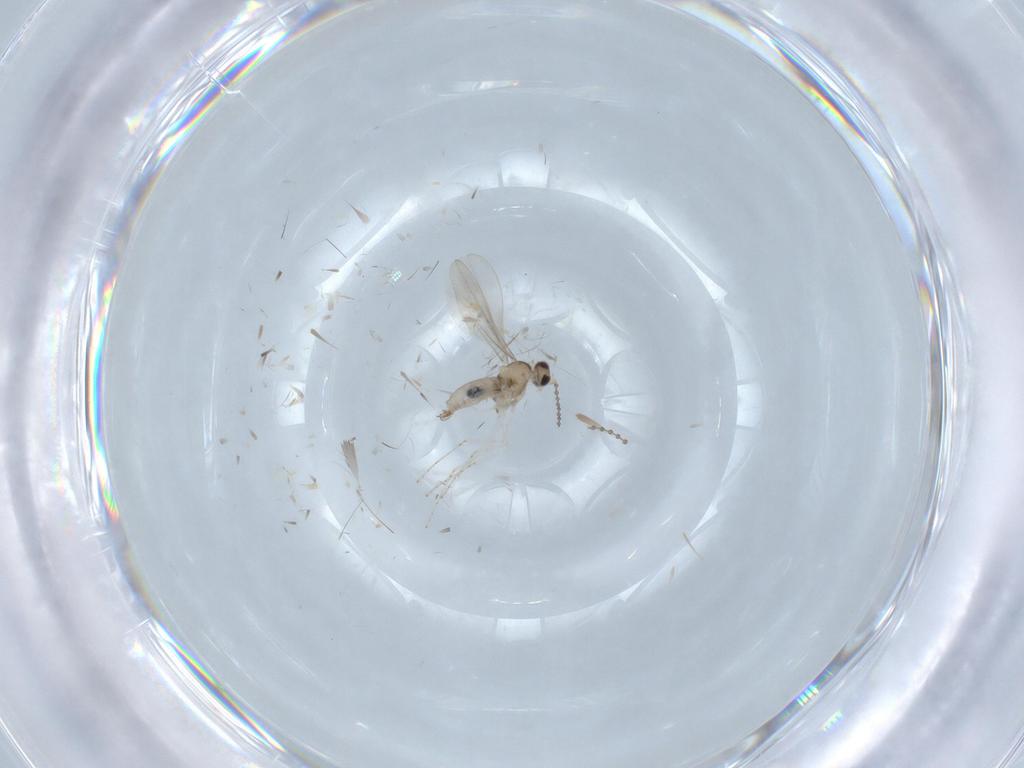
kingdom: Animalia
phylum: Arthropoda
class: Insecta
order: Diptera
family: Cecidomyiidae
